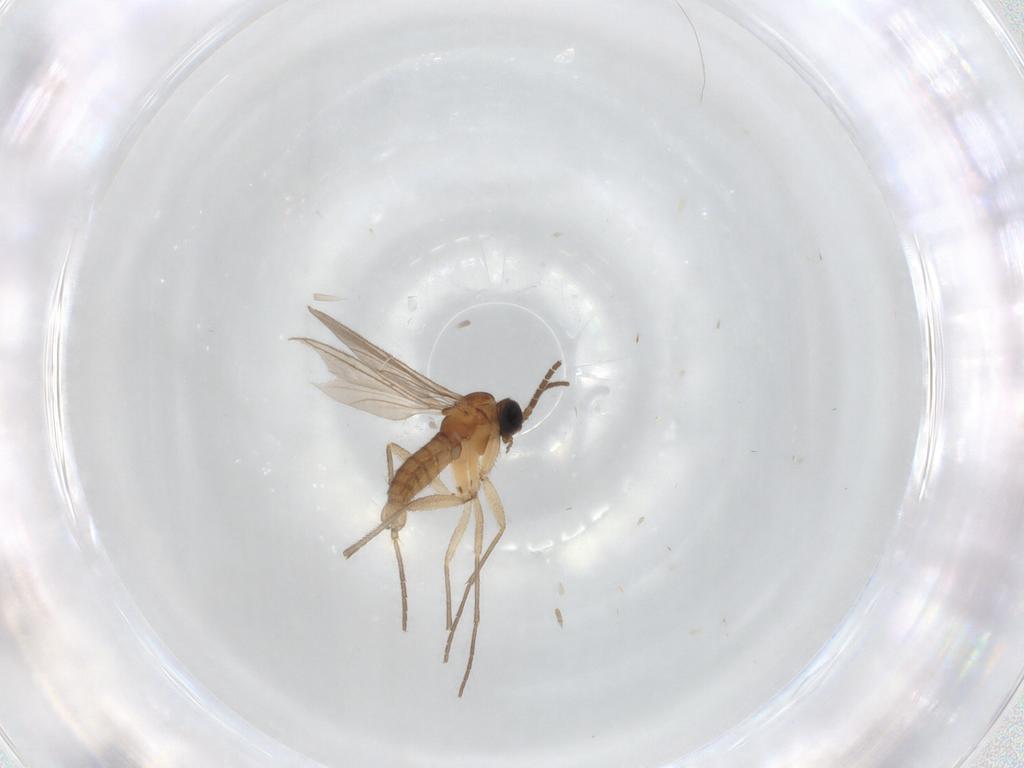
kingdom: Animalia
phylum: Arthropoda
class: Insecta
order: Diptera
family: Sciaridae
